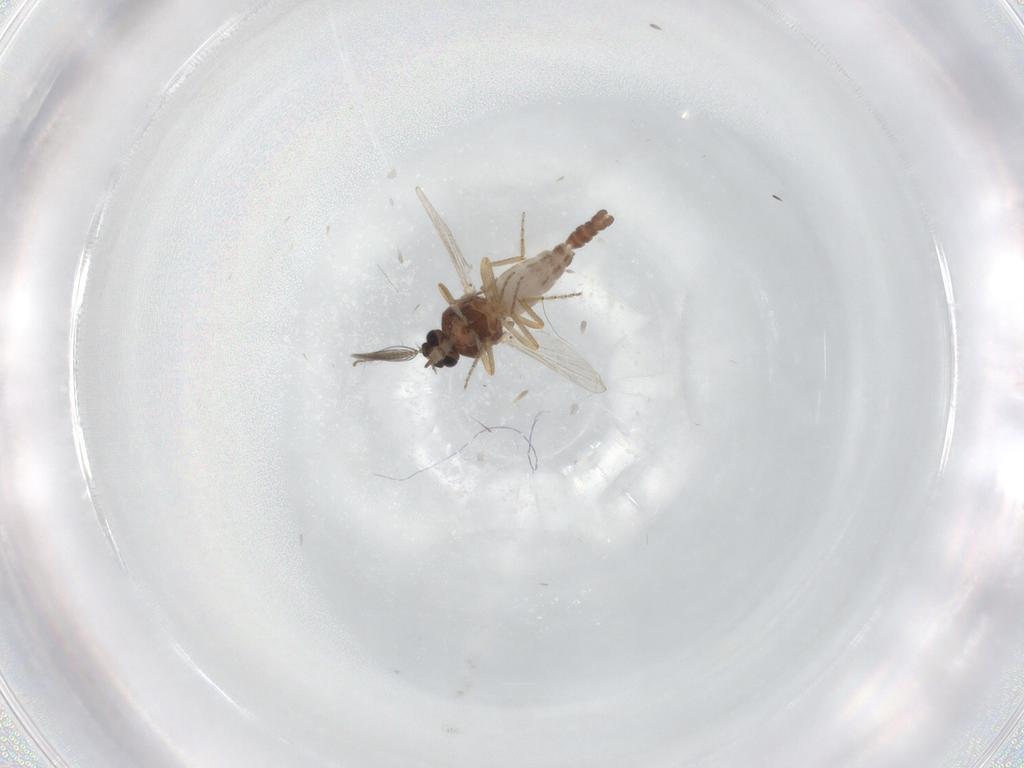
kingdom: Animalia
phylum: Arthropoda
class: Insecta
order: Diptera
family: Ceratopogonidae
